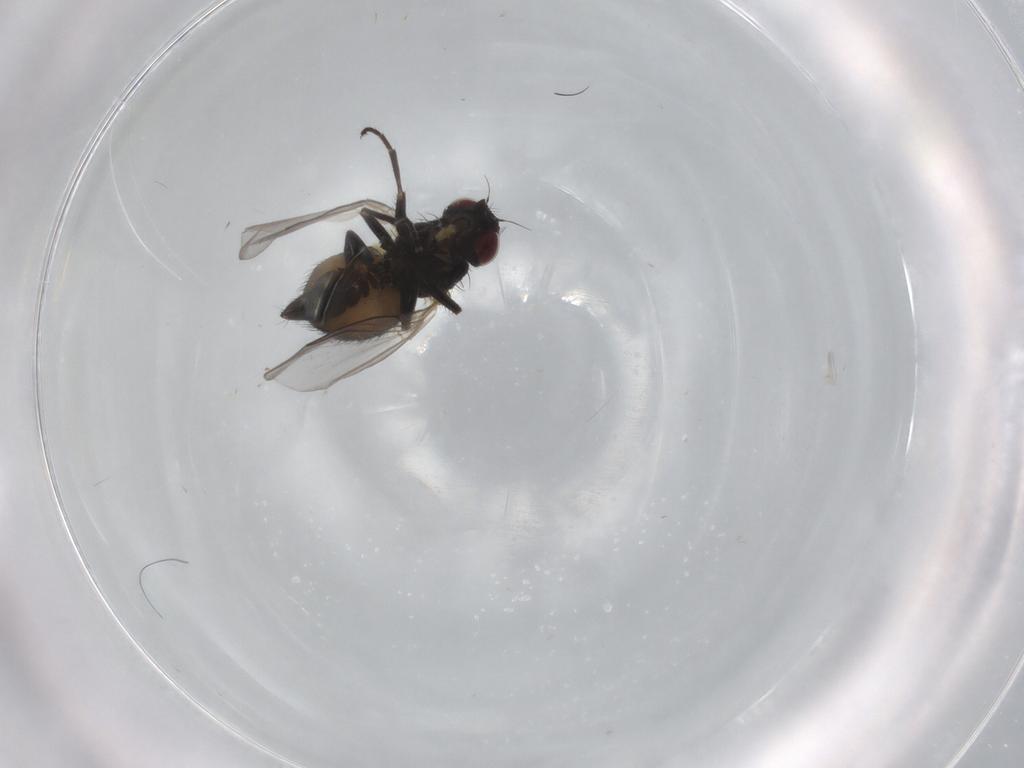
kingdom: Animalia
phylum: Arthropoda
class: Insecta
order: Diptera
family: Agromyzidae
